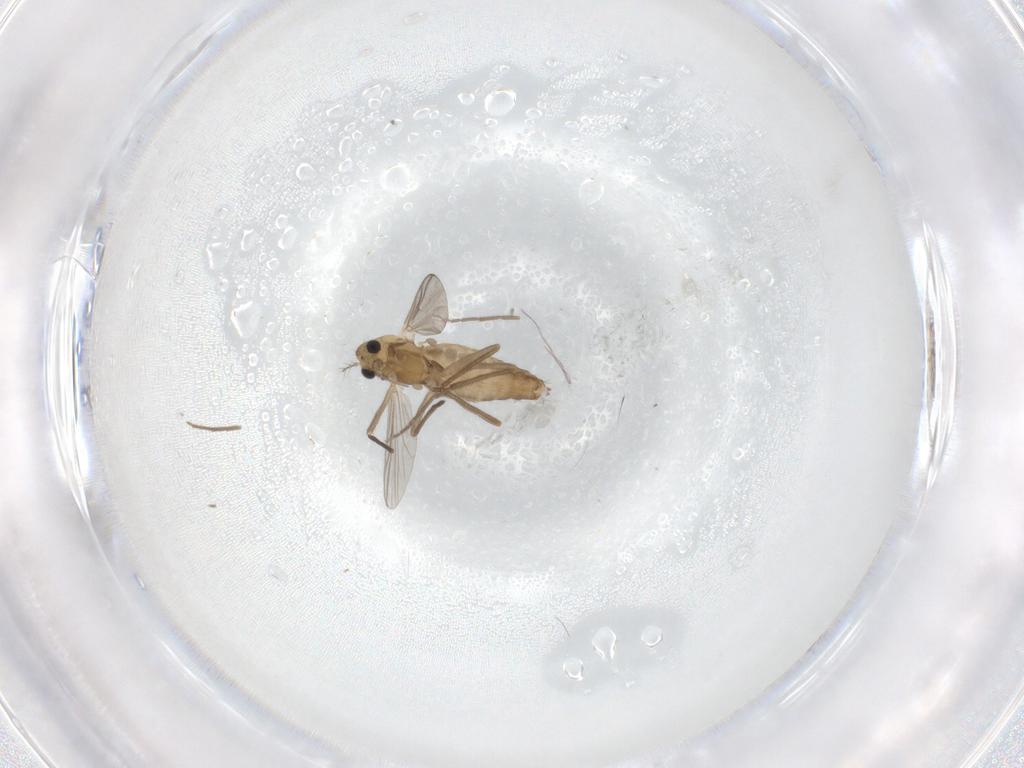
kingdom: Animalia
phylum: Arthropoda
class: Insecta
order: Diptera
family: Chironomidae
